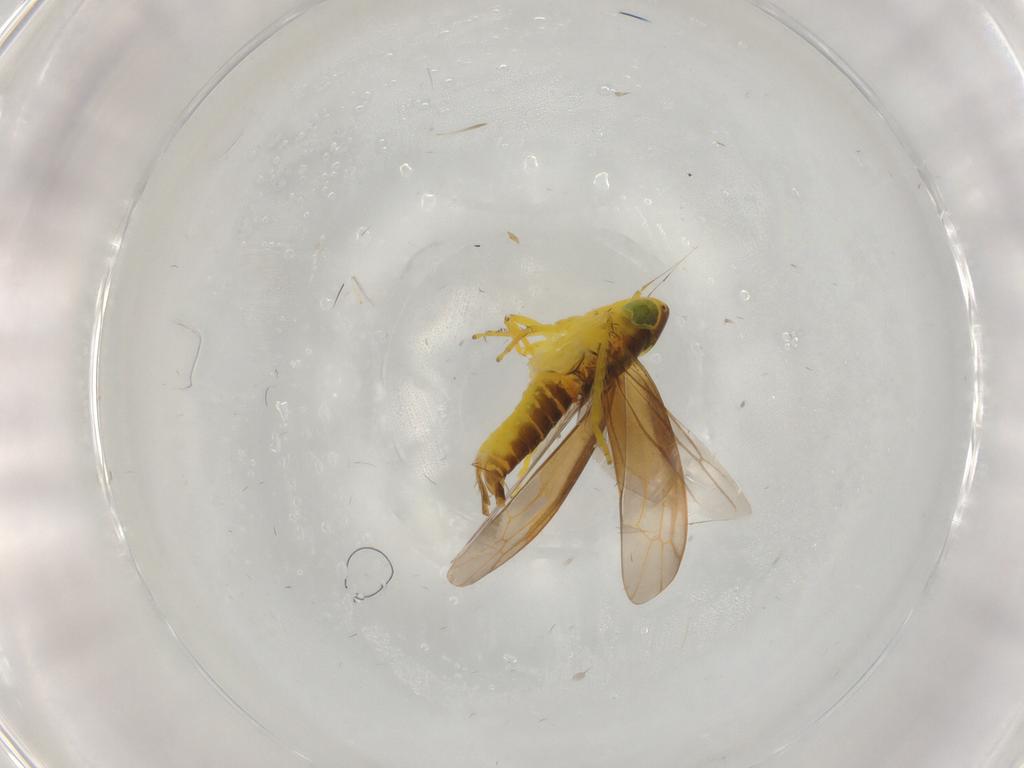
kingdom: Animalia
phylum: Arthropoda
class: Insecta
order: Hemiptera
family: Cicadellidae
